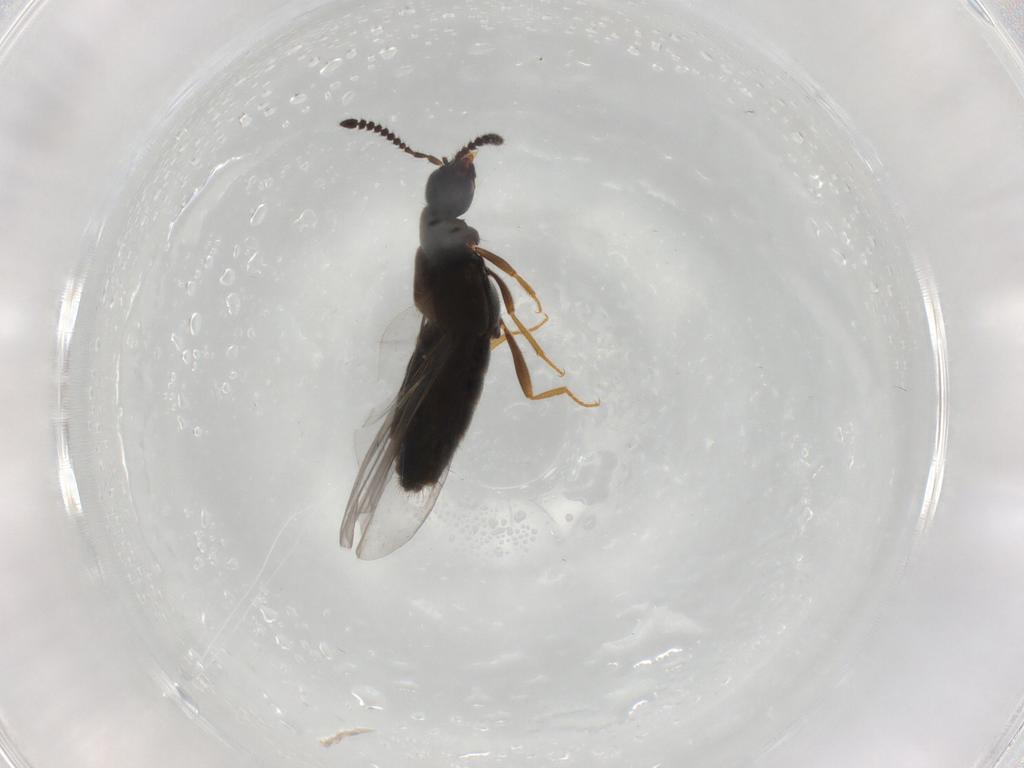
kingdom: Animalia
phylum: Arthropoda
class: Insecta
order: Coleoptera
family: Staphylinidae
